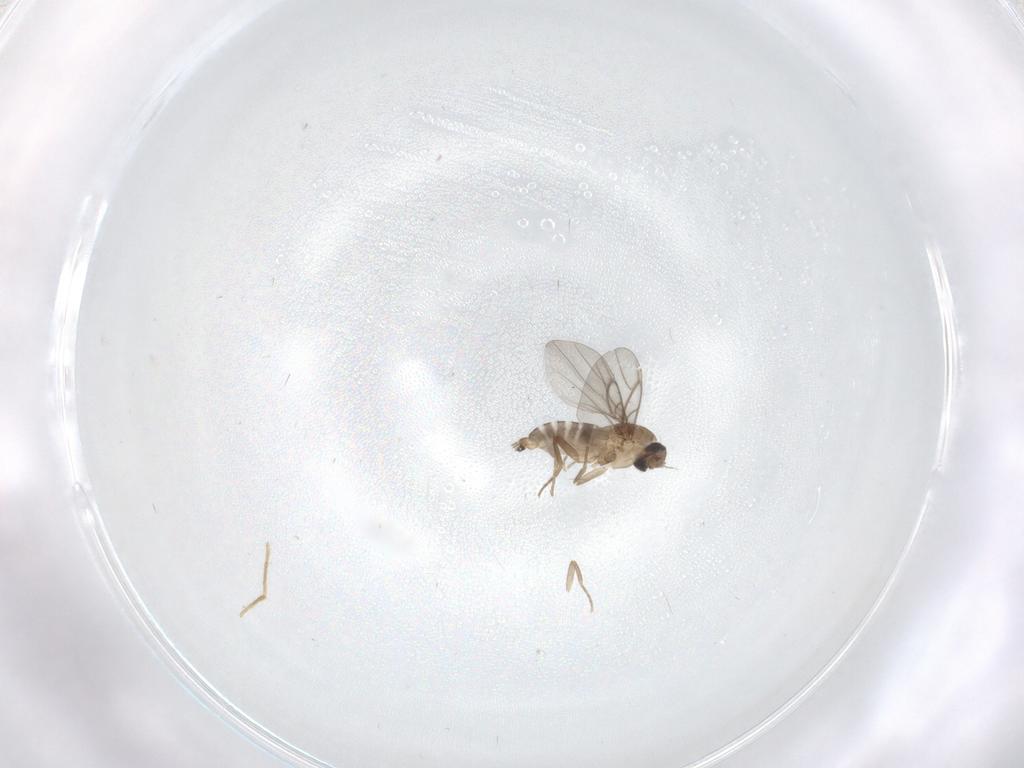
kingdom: Animalia
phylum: Arthropoda
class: Insecta
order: Diptera
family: Chironomidae
